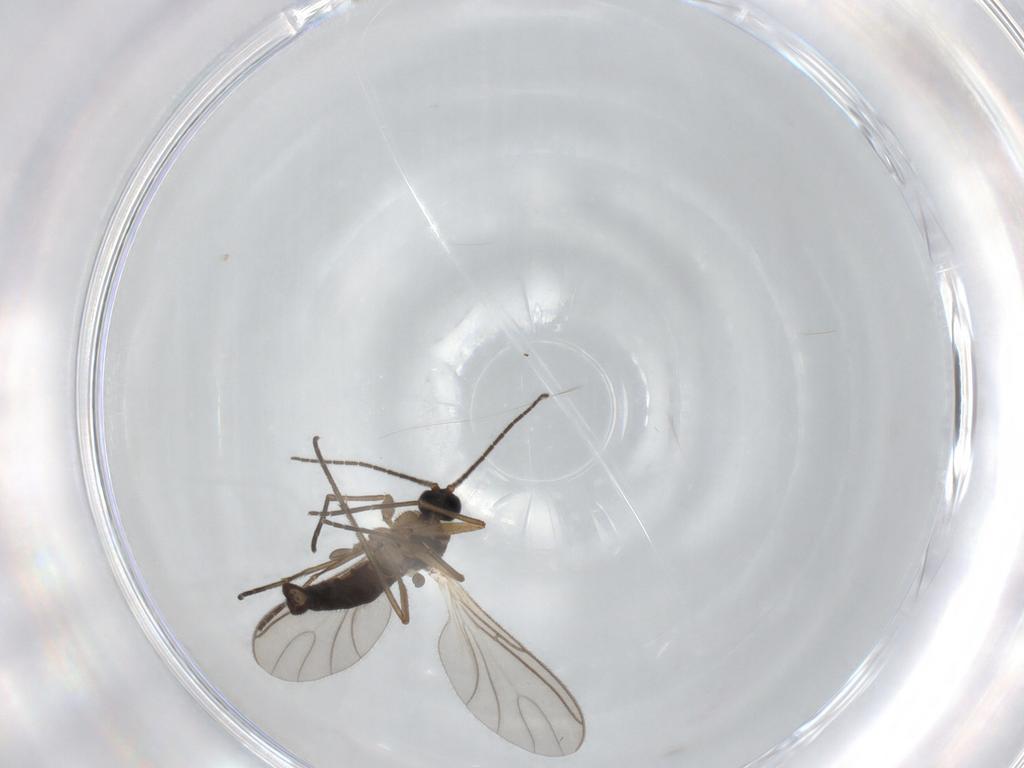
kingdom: Animalia
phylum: Arthropoda
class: Insecta
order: Diptera
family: Sciaridae
